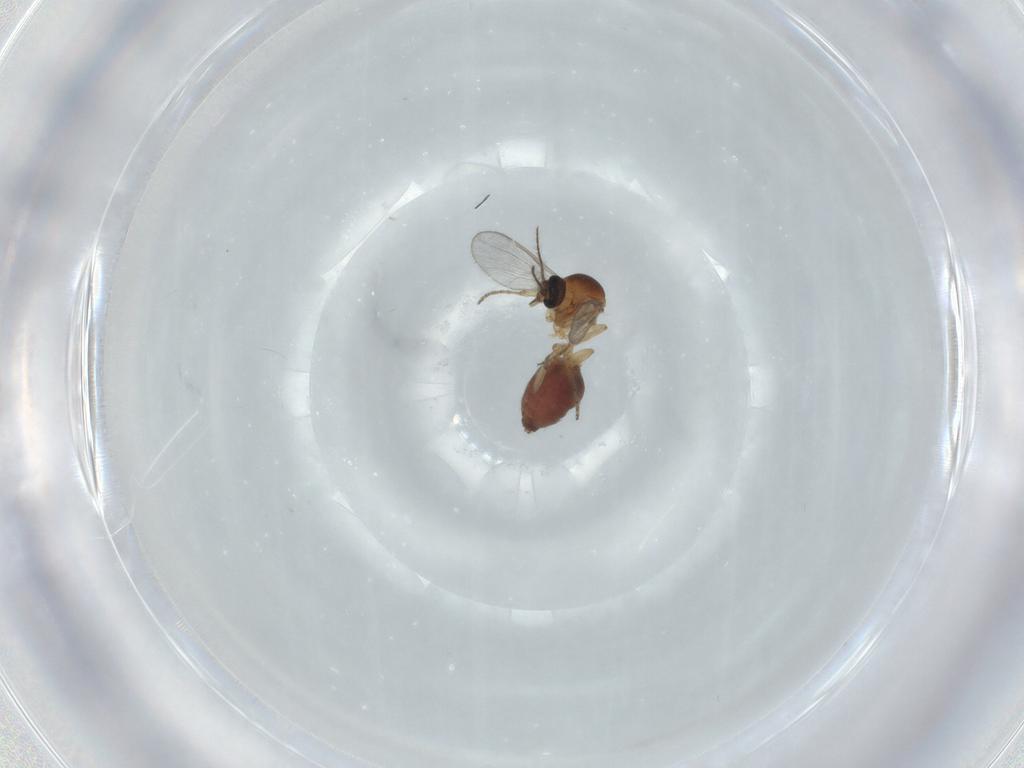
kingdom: Animalia
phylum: Arthropoda
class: Insecta
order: Diptera
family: Ceratopogonidae
